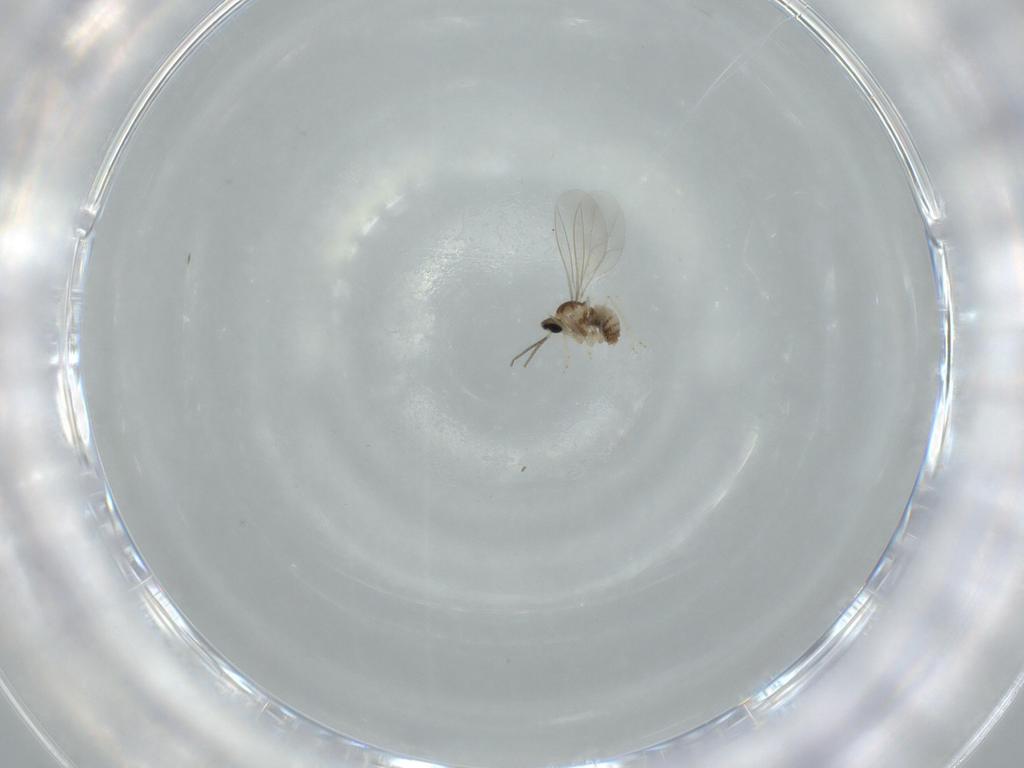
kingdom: Animalia
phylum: Arthropoda
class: Insecta
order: Diptera
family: Cecidomyiidae
